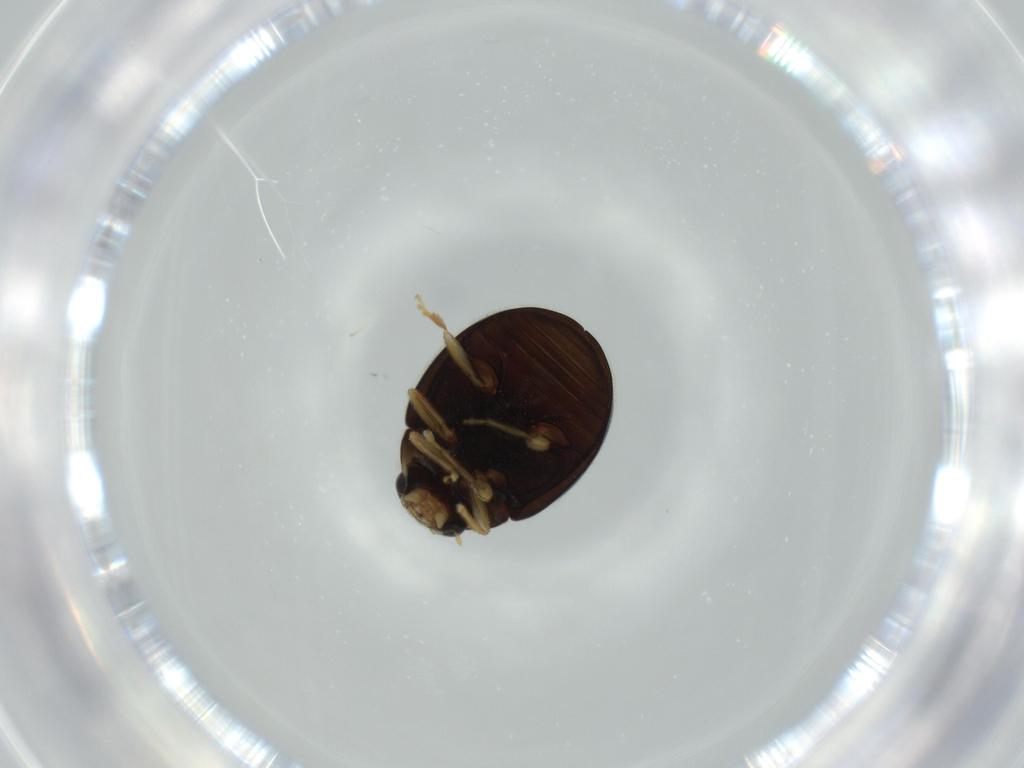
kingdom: Animalia
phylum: Arthropoda
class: Insecta
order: Coleoptera
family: Coccinellidae
